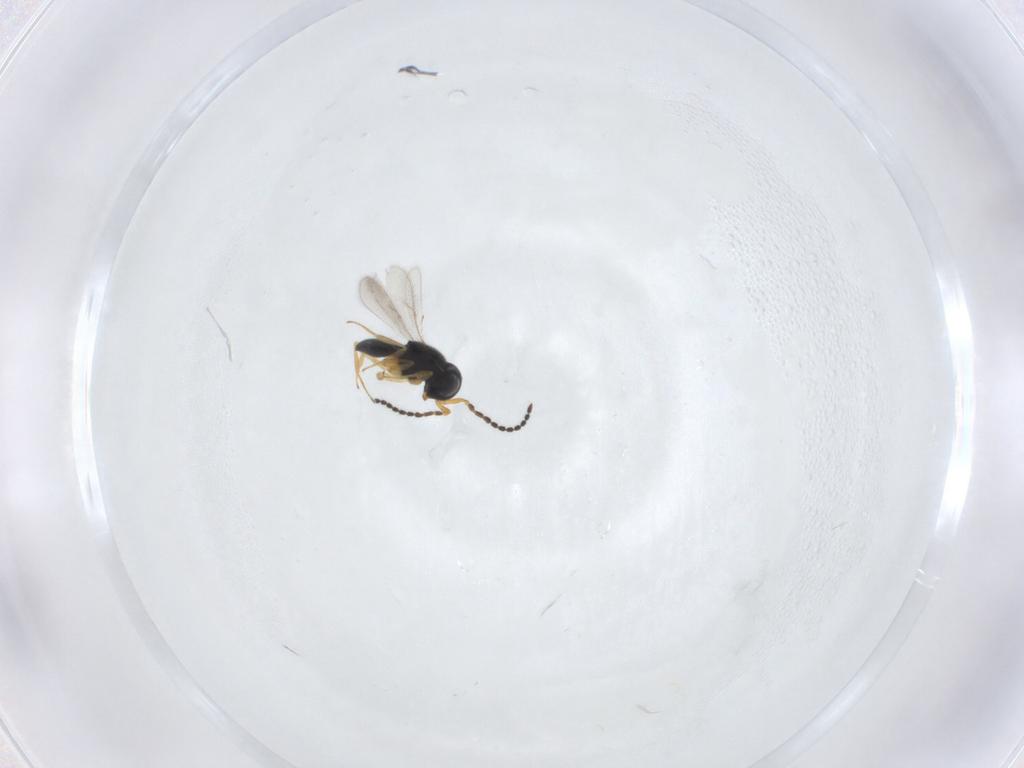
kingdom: Animalia
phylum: Arthropoda
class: Insecta
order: Hymenoptera
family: Scelionidae
